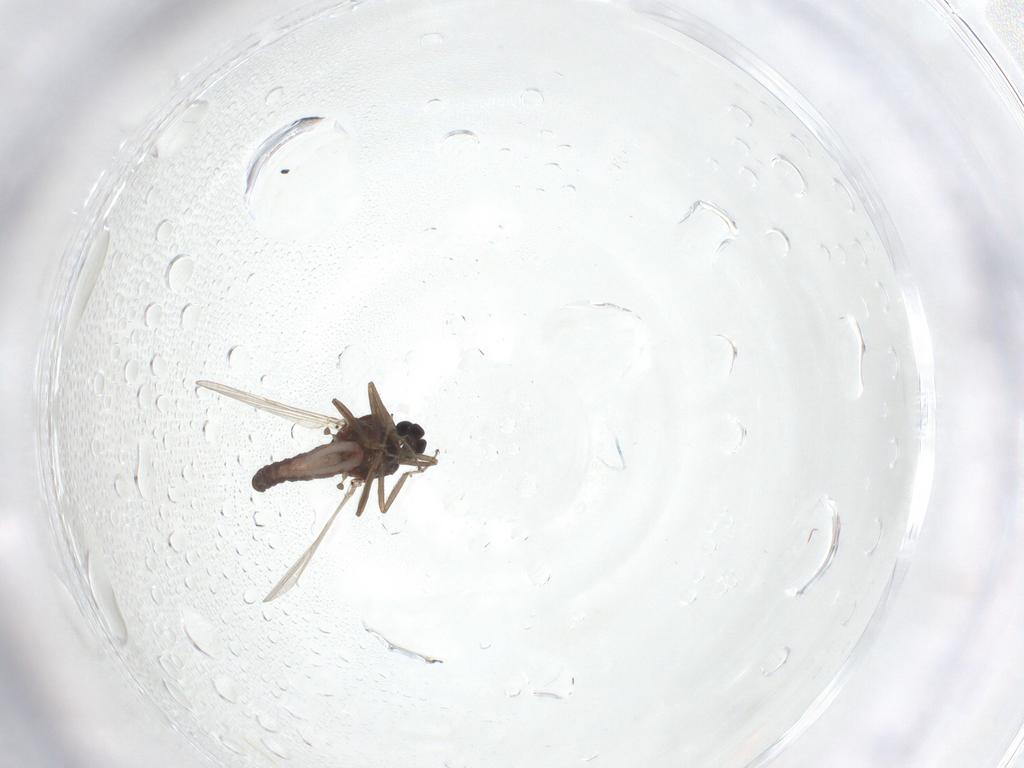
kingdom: Animalia
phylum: Arthropoda
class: Insecta
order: Diptera
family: Ceratopogonidae
